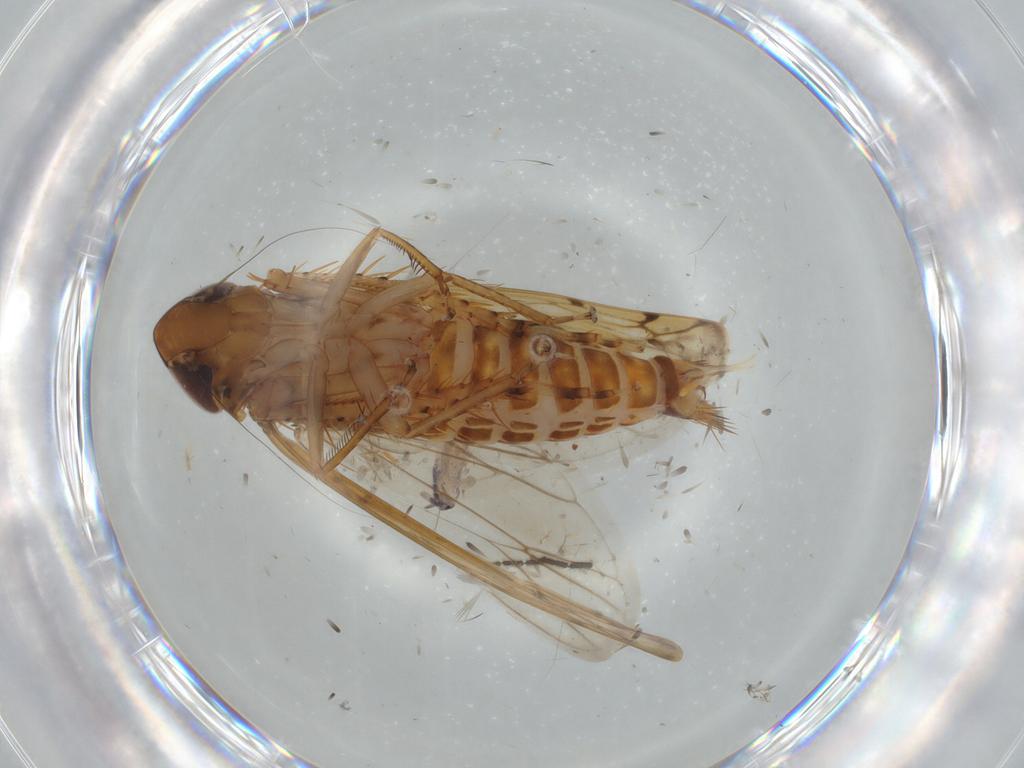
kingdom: Animalia
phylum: Arthropoda
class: Insecta
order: Hemiptera
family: Cicadellidae
